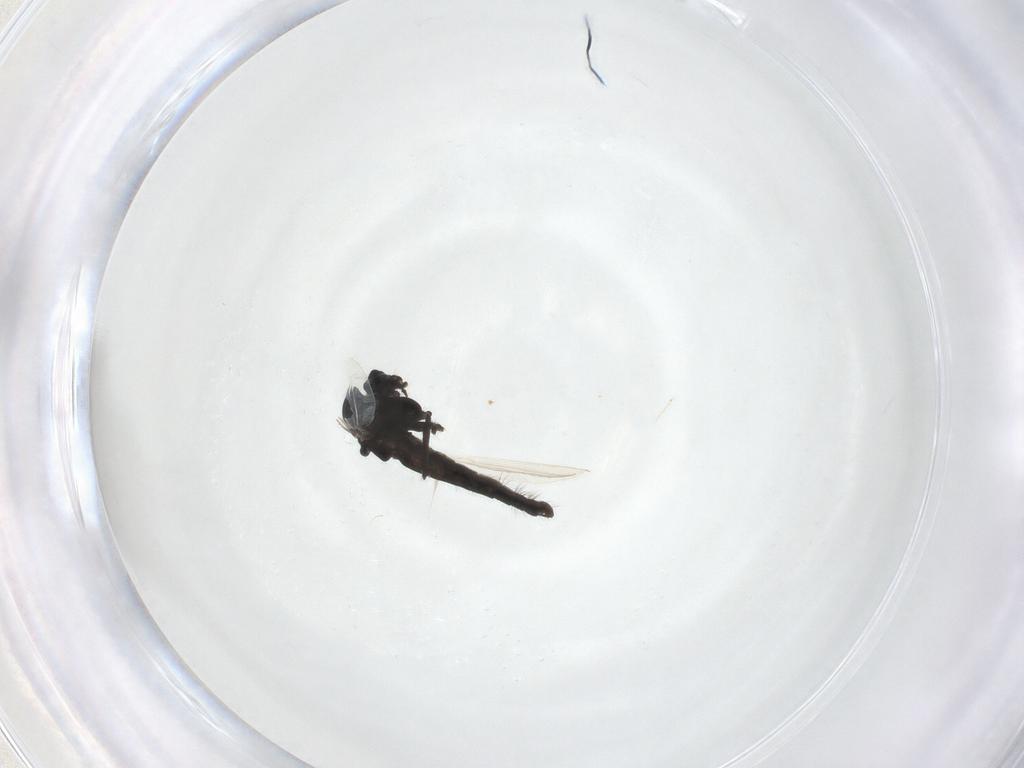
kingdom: Animalia
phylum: Arthropoda
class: Insecta
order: Diptera
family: Chironomidae
